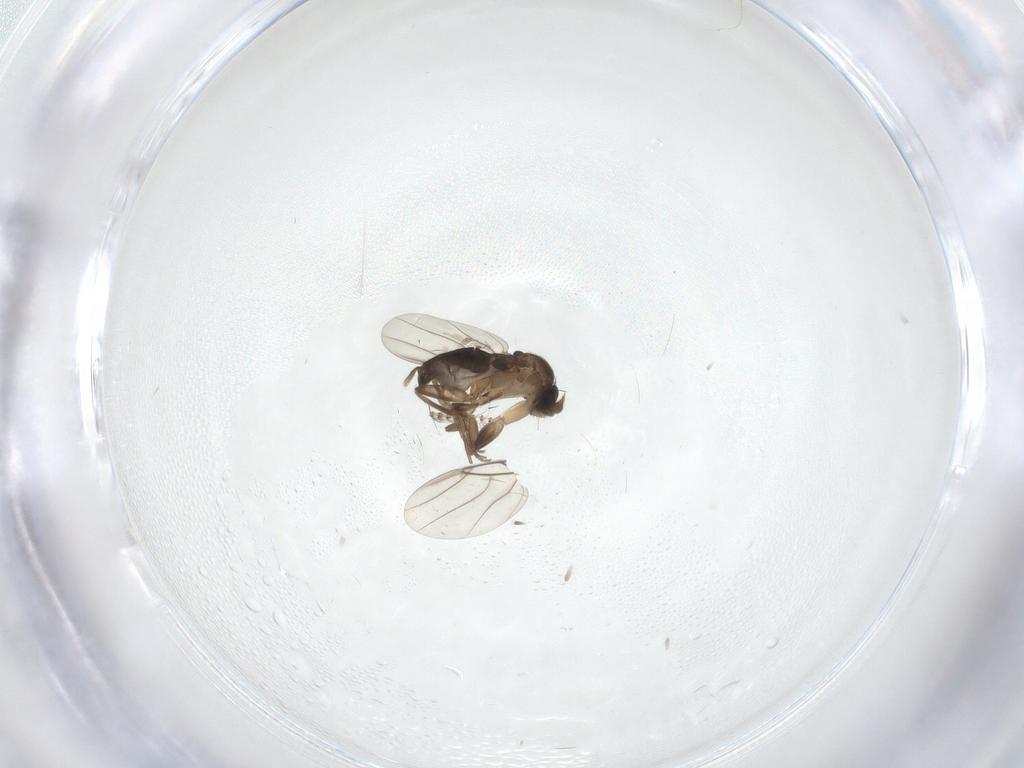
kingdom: Animalia
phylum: Arthropoda
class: Insecta
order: Diptera
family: Phoridae
